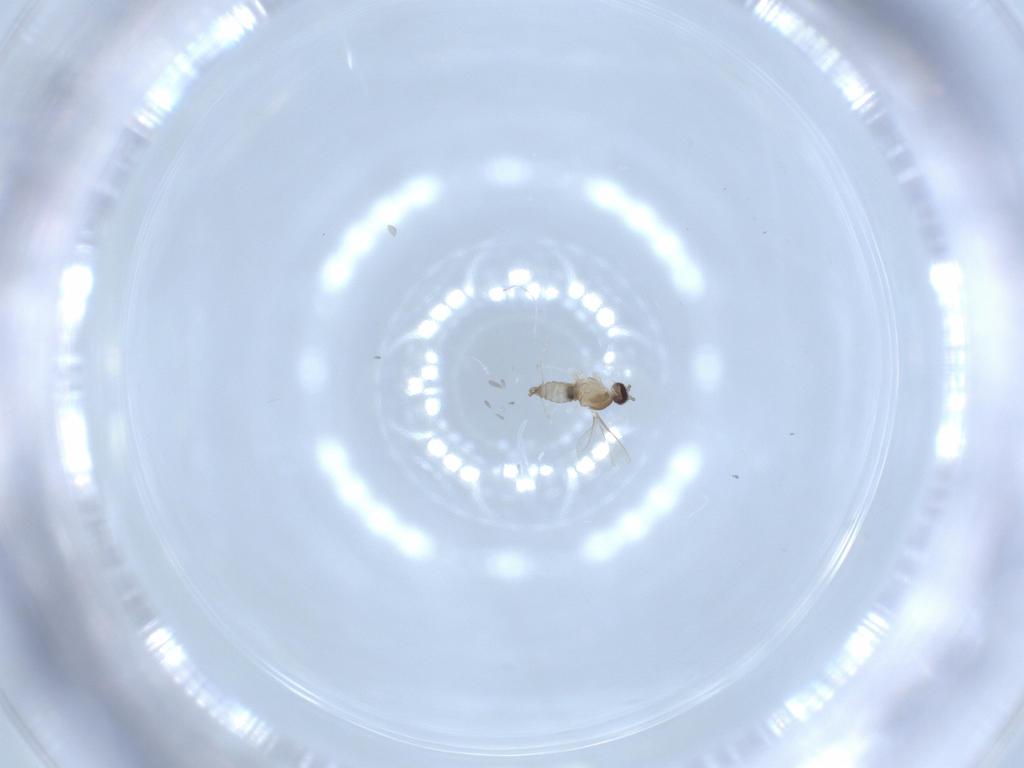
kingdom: Animalia
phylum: Arthropoda
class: Insecta
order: Diptera
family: Cecidomyiidae
